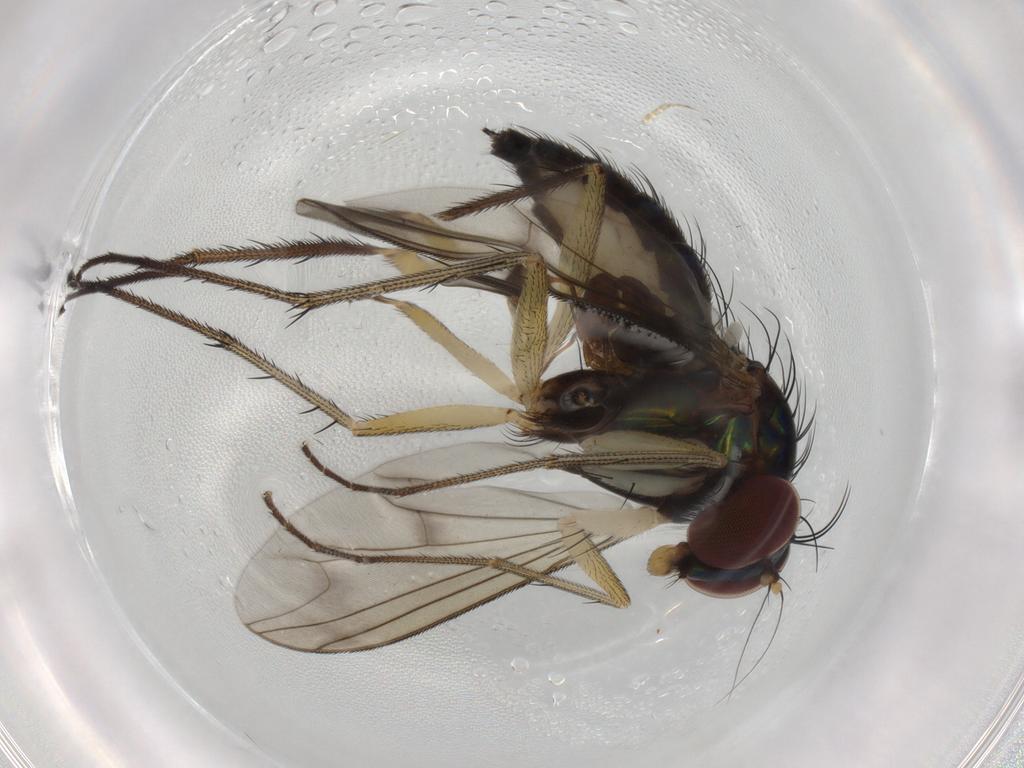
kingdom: Animalia
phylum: Arthropoda
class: Insecta
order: Diptera
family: Dolichopodidae
